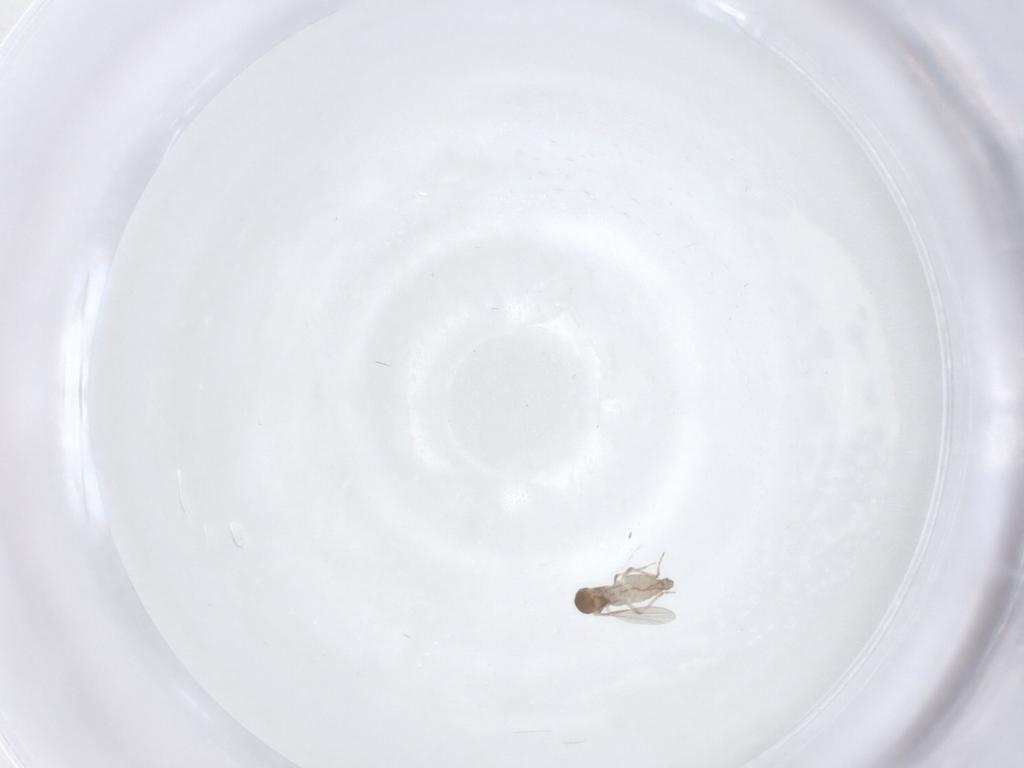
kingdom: Animalia
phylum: Arthropoda
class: Insecta
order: Diptera
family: Ceratopogonidae
